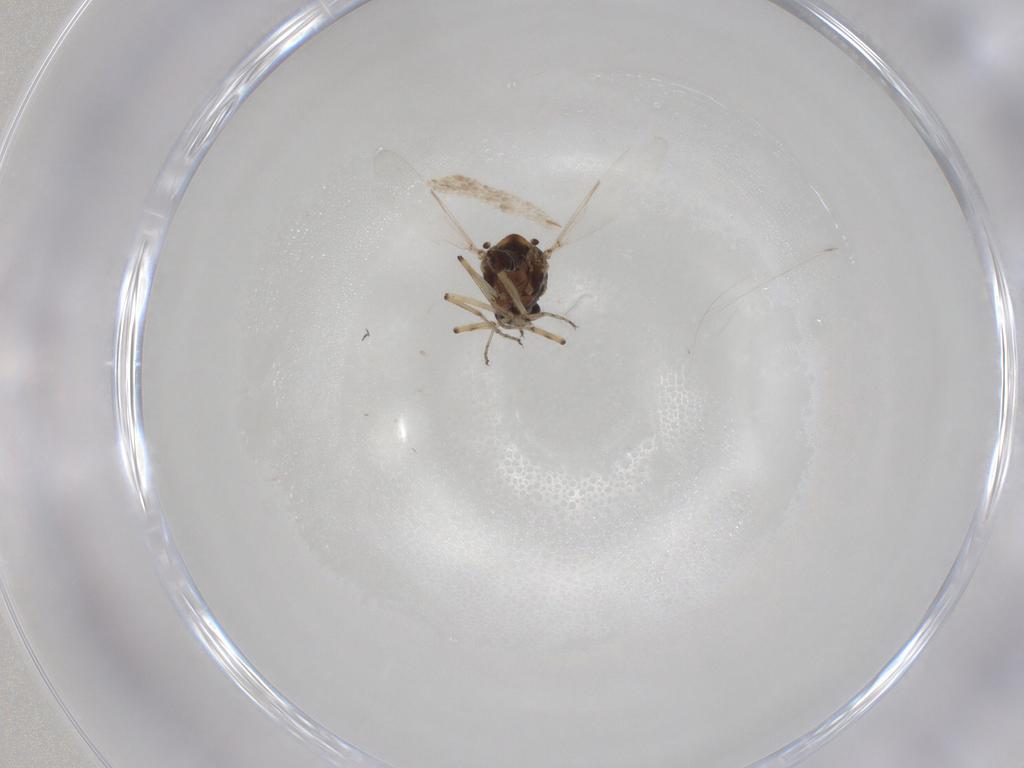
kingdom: Animalia
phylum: Arthropoda
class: Insecta
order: Diptera
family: Ceratopogonidae
